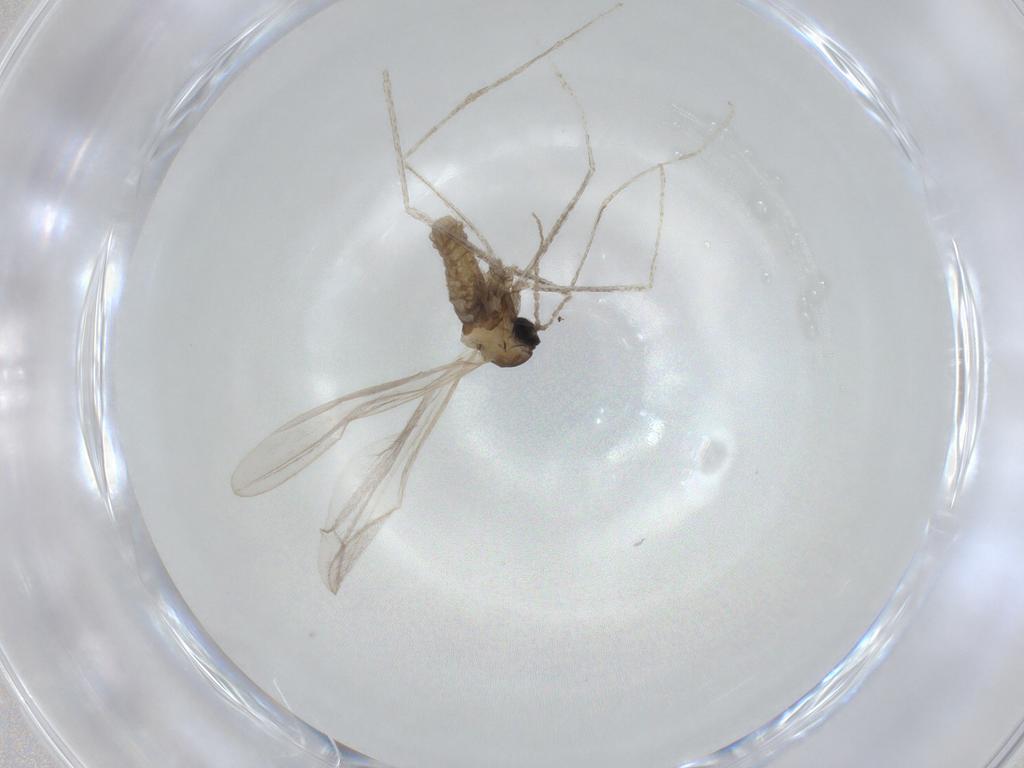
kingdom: Animalia
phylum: Arthropoda
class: Insecta
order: Diptera
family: Cecidomyiidae
